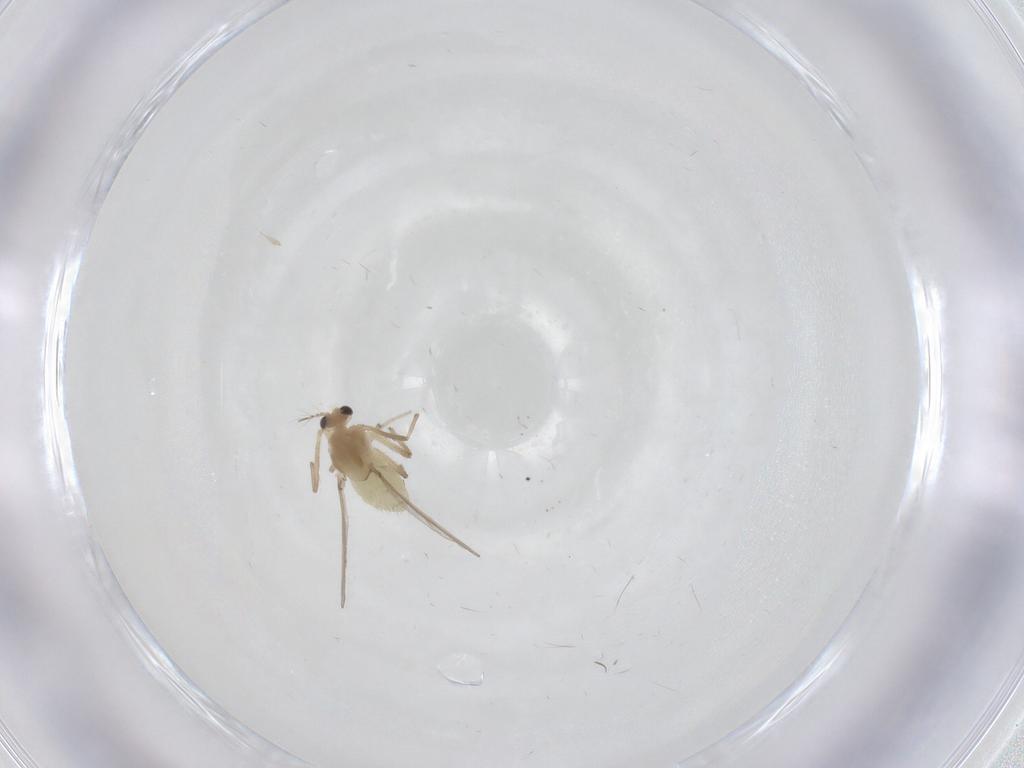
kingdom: Animalia
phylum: Arthropoda
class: Insecta
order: Diptera
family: Chironomidae
